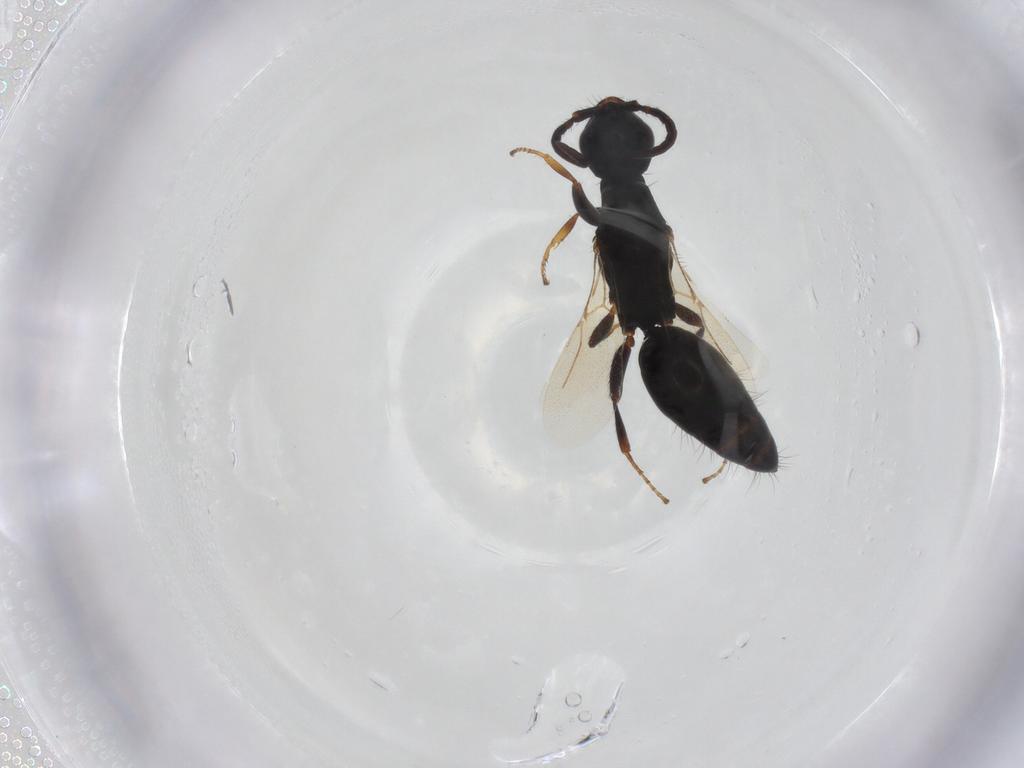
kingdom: Animalia
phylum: Arthropoda
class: Insecta
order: Hymenoptera
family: Bethylidae
